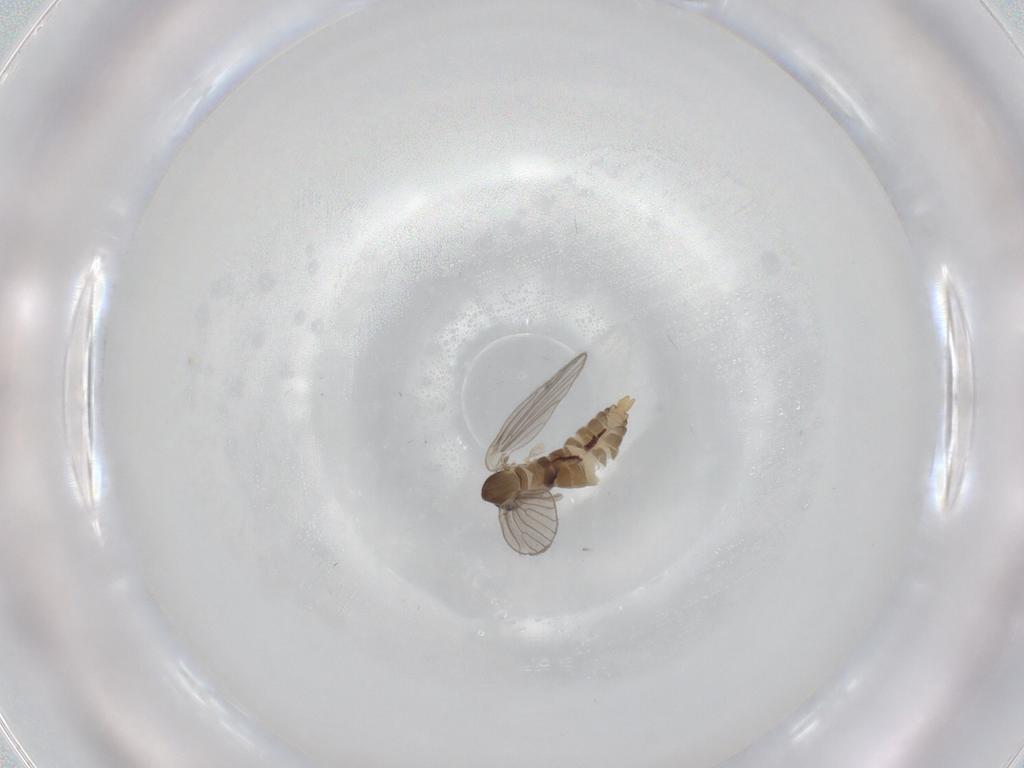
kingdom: Animalia
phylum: Arthropoda
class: Insecta
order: Diptera
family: Psychodidae
